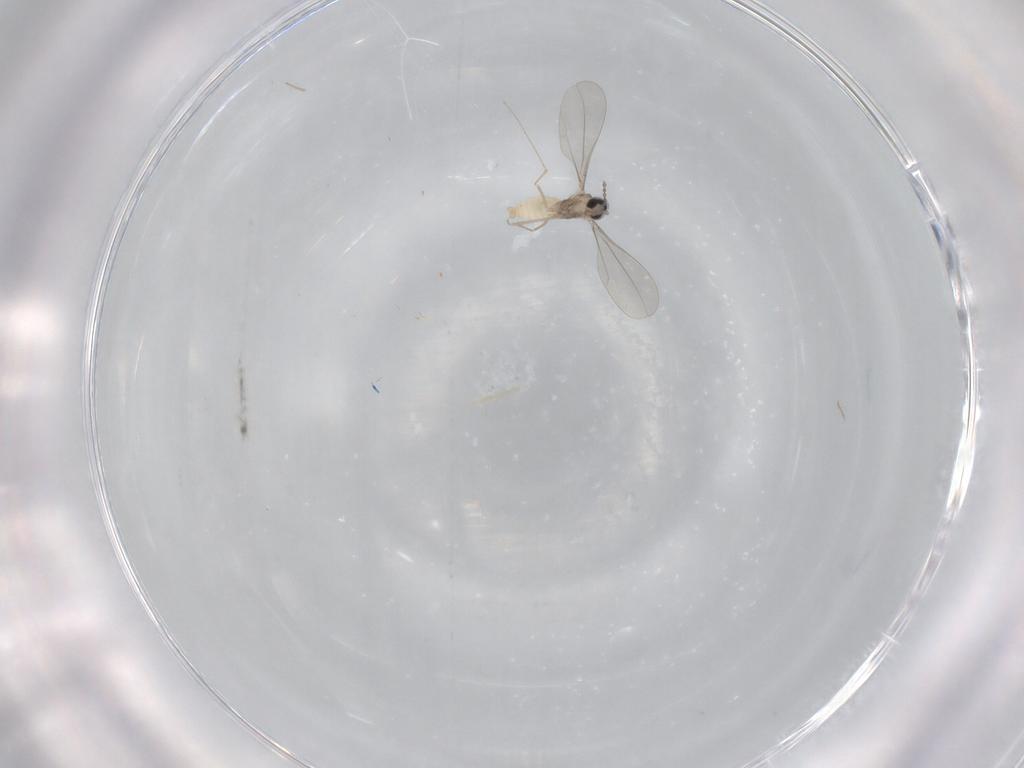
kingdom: Animalia
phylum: Arthropoda
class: Insecta
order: Diptera
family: Cecidomyiidae
